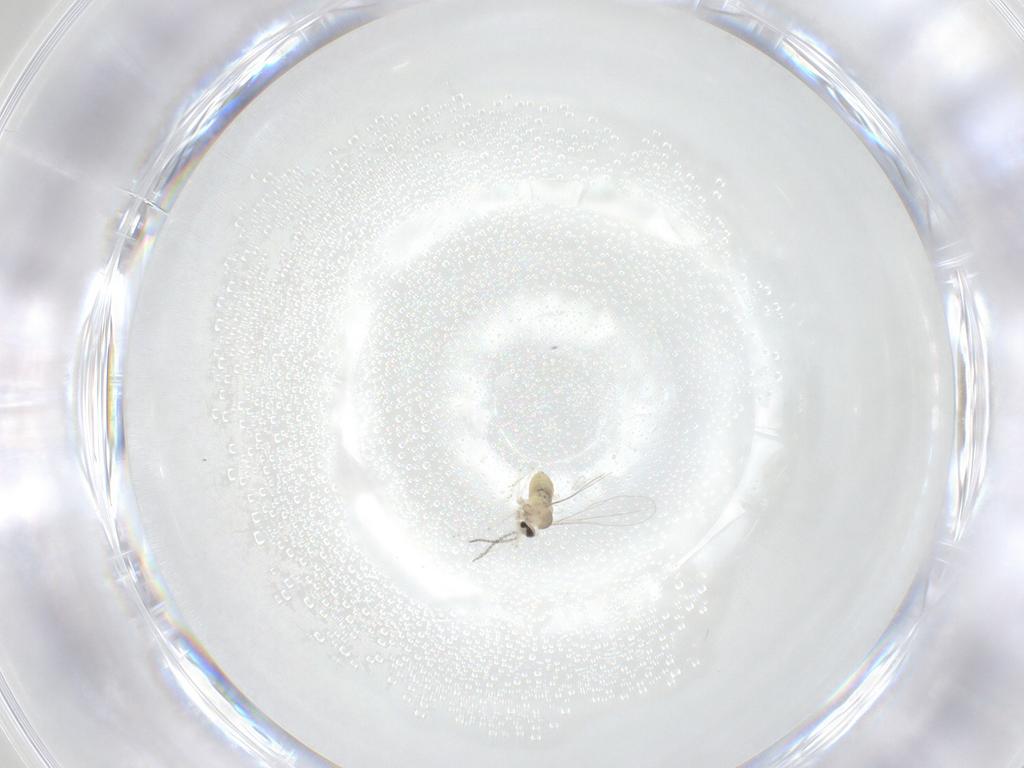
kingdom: Animalia
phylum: Arthropoda
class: Insecta
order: Diptera
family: Cecidomyiidae
